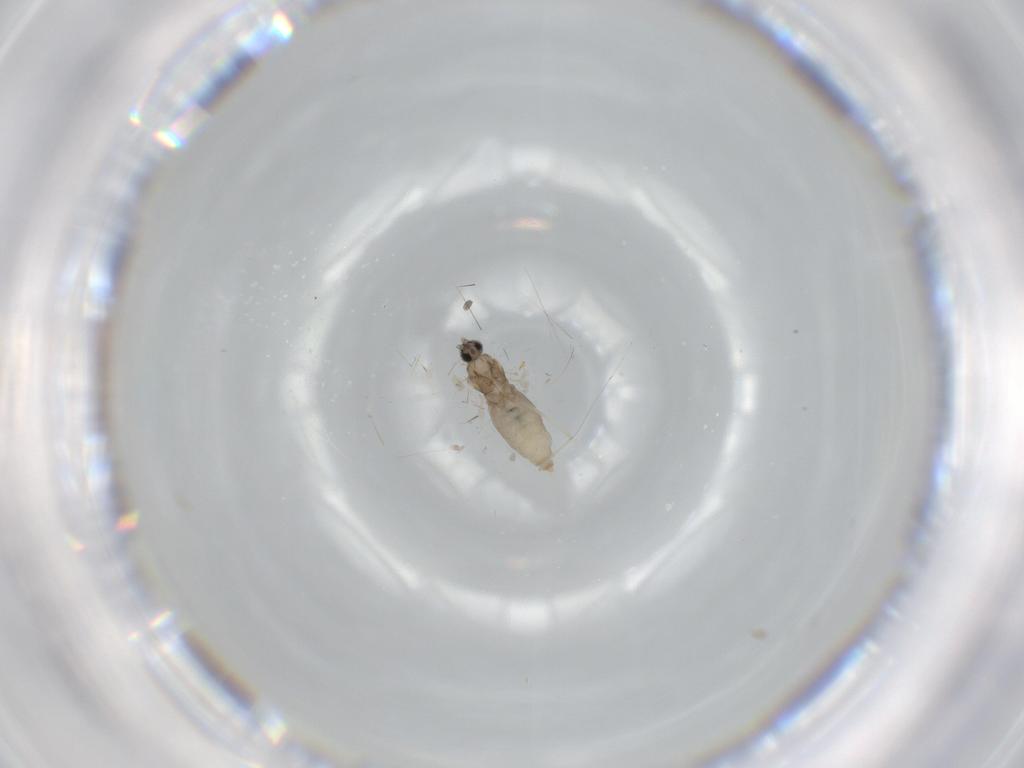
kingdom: Animalia
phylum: Arthropoda
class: Insecta
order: Diptera
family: Cecidomyiidae
